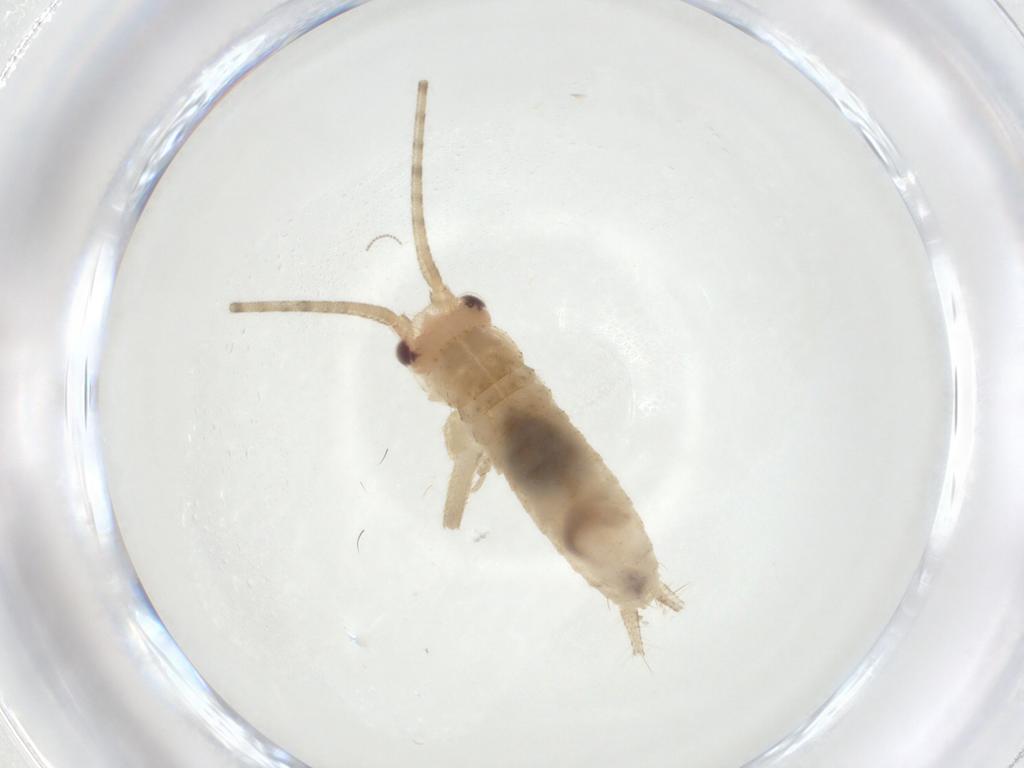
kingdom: Animalia
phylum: Arthropoda
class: Insecta
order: Orthoptera
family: Gryllidae
